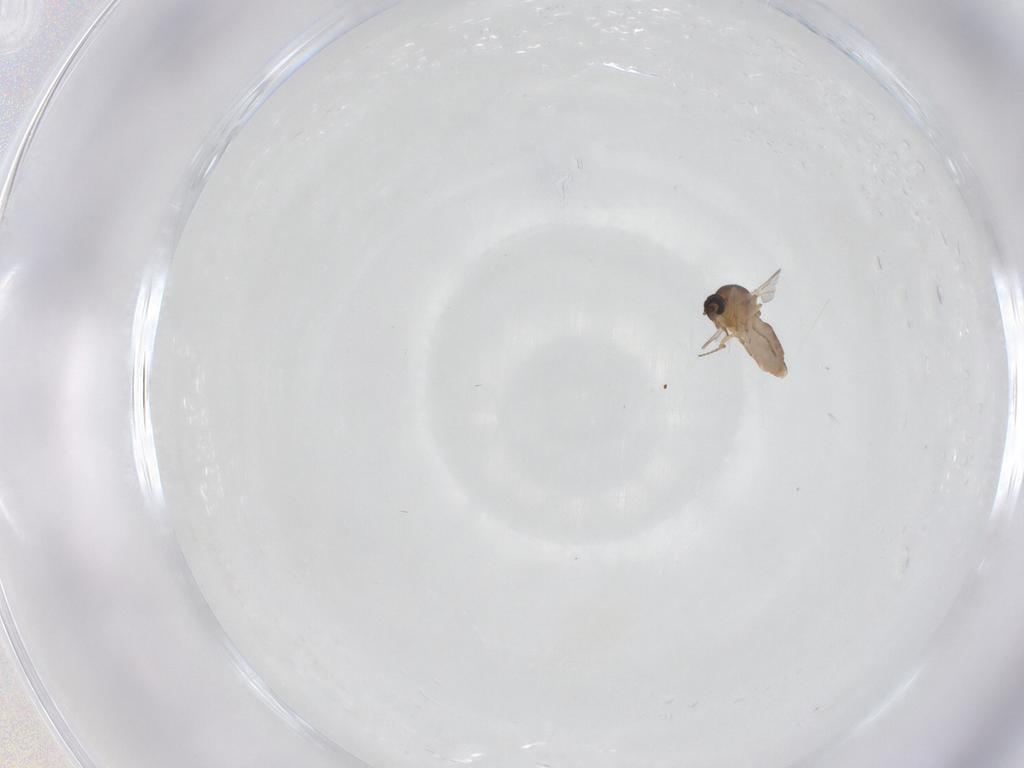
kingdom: Animalia
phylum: Arthropoda
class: Insecta
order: Diptera
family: Ceratopogonidae
